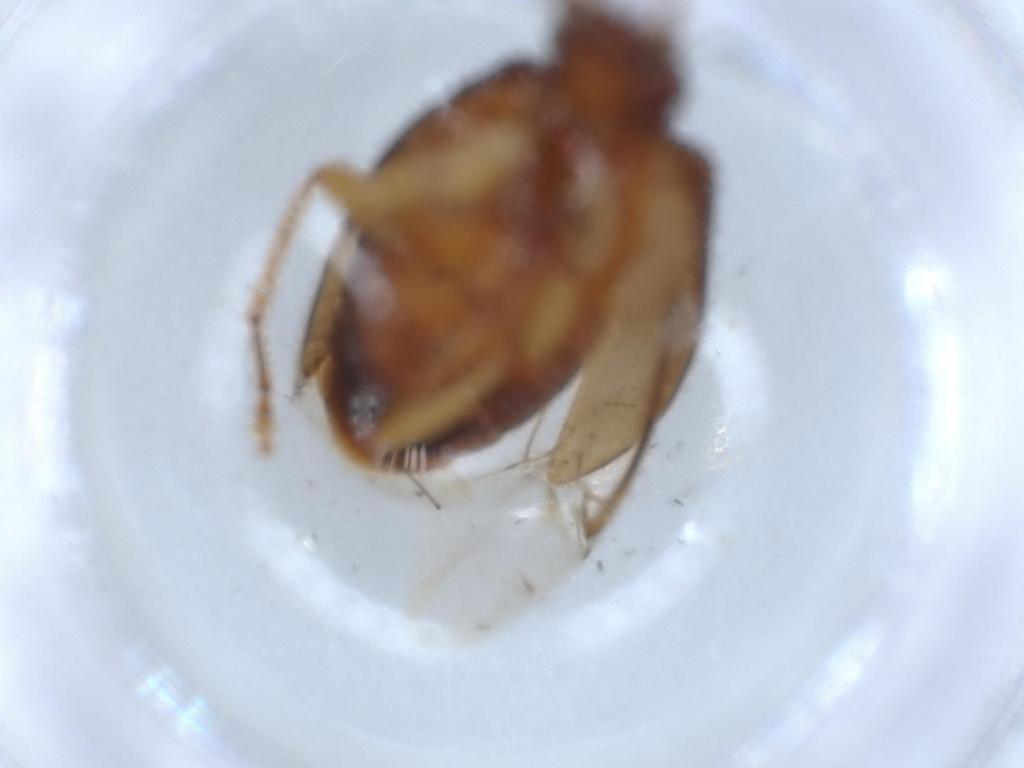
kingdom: Animalia
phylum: Arthropoda
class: Insecta
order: Coleoptera
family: Tenebrionidae
